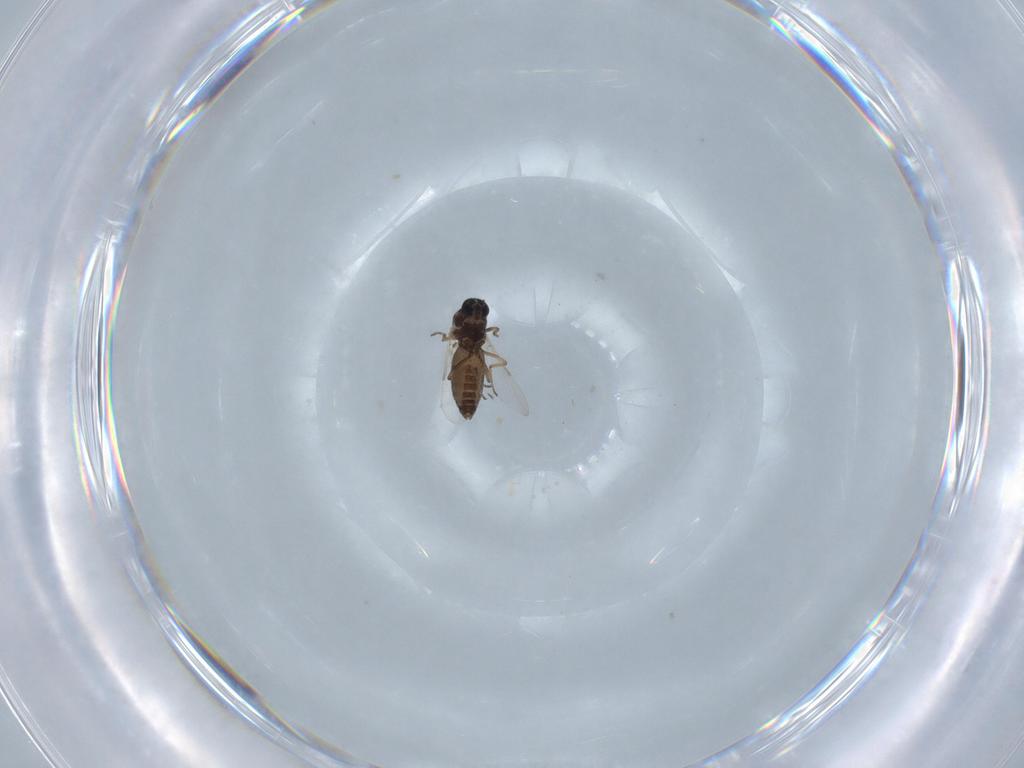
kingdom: Animalia
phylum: Arthropoda
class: Insecta
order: Diptera
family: Ceratopogonidae
